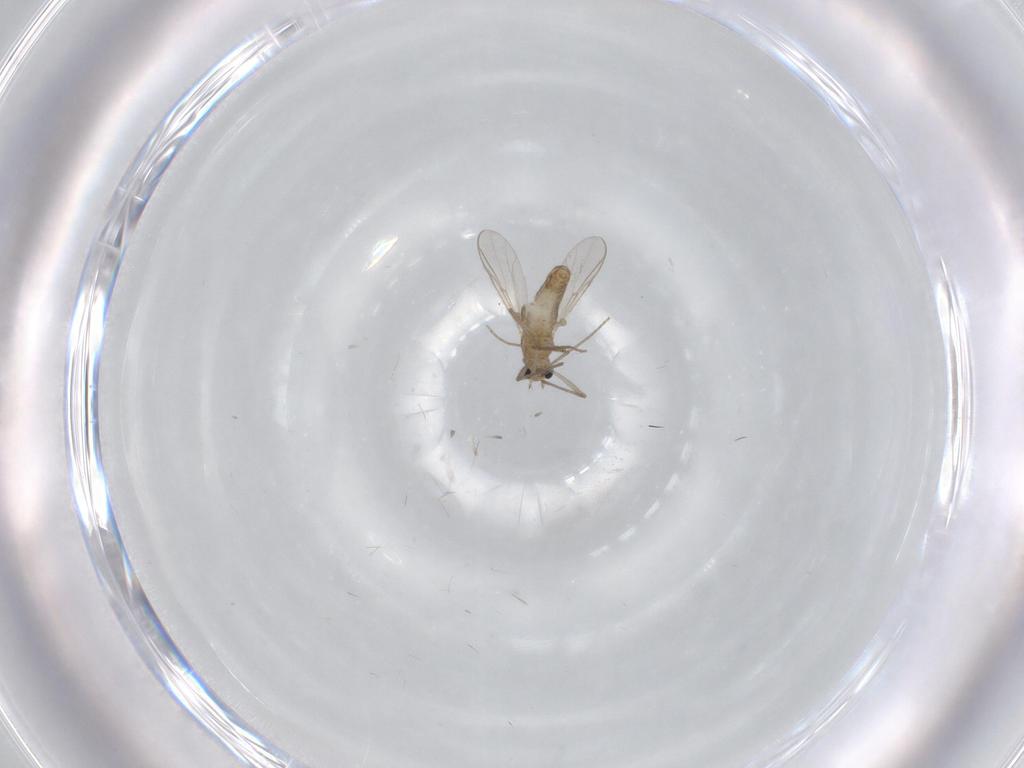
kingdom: Animalia
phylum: Arthropoda
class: Insecta
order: Diptera
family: Chironomidae
